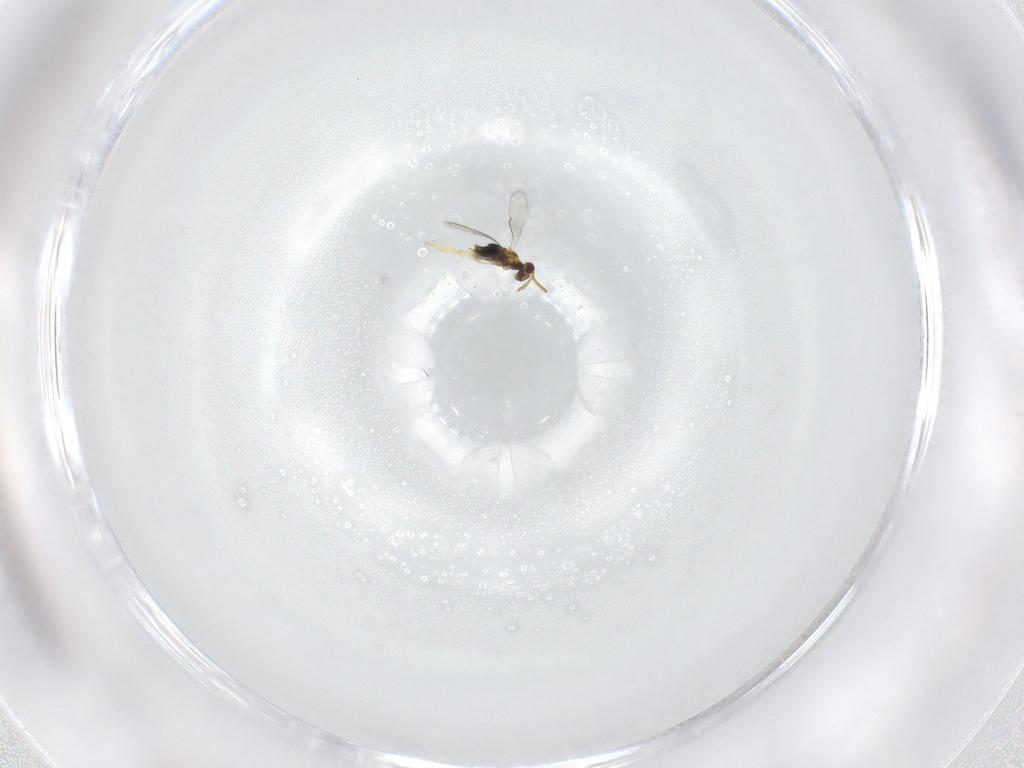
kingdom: Animalia
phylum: Arthropoda
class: Insecta
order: Hymenoptera
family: Aphelinidae
